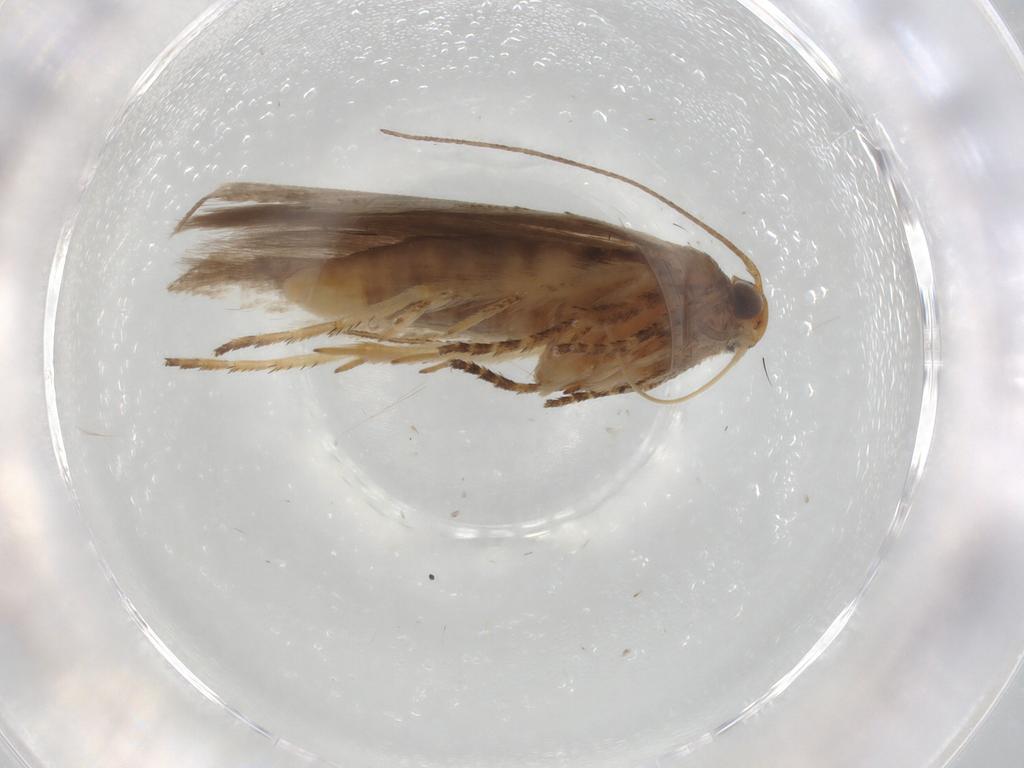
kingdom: Animalia
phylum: Arthropoda
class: Insecta
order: Lepidoptera
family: Gelechiidae
